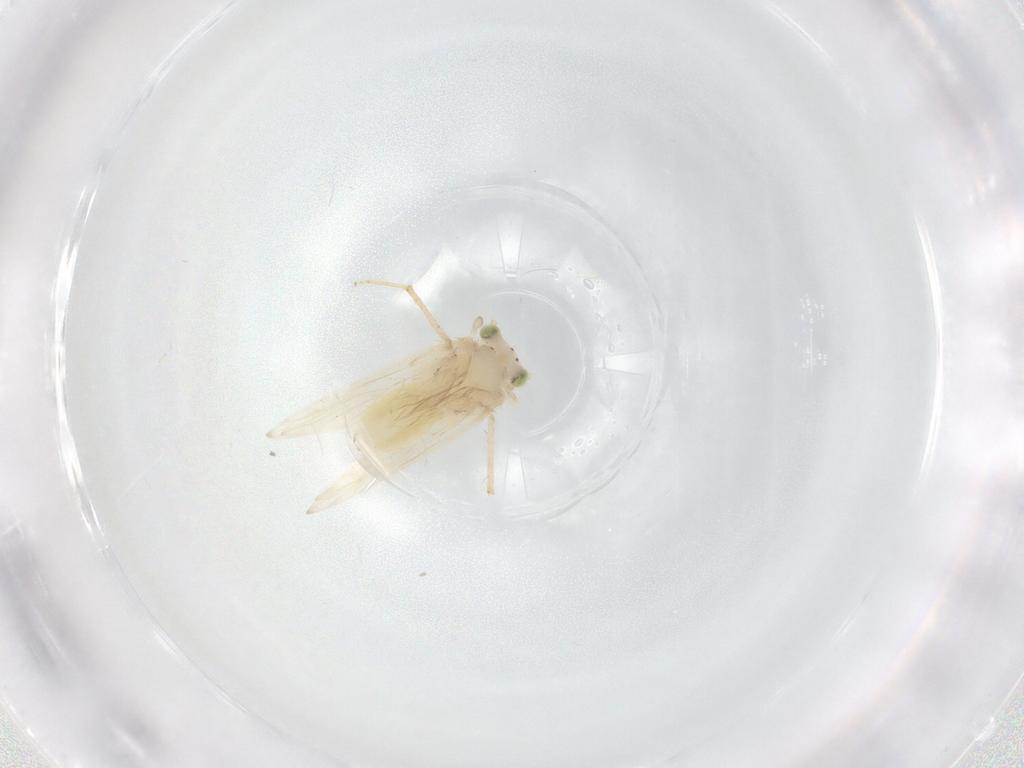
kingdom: Animalia
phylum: Arthropoda
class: Insecta
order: Psocodea
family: Lepidopsocidae
